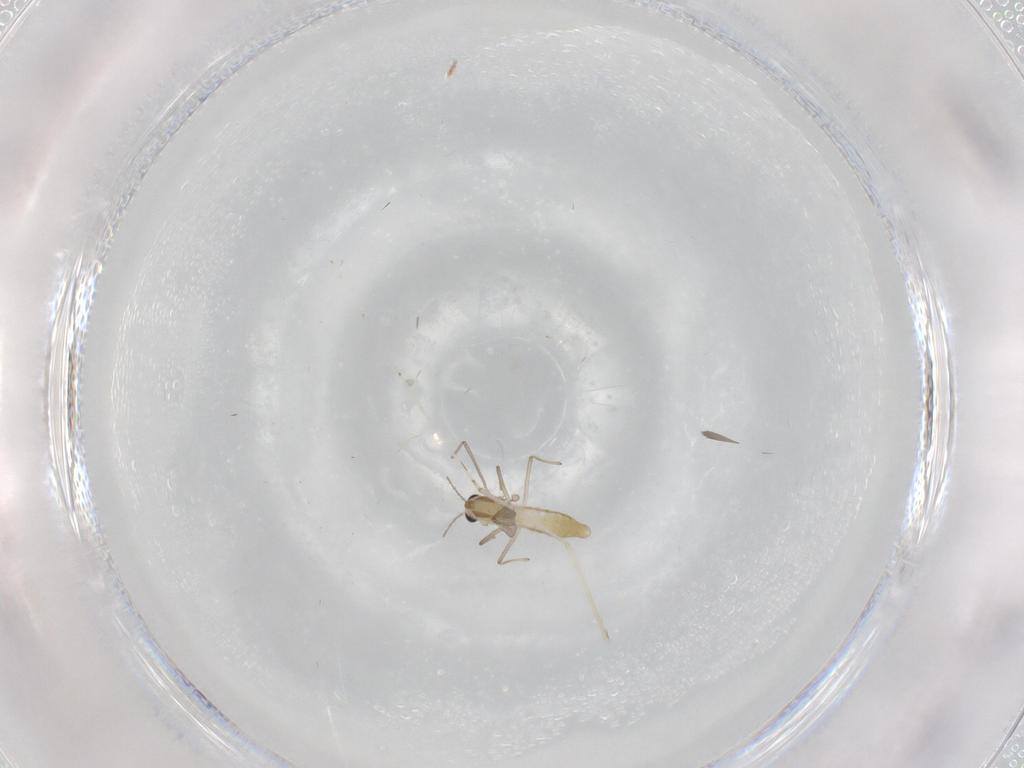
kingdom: Animalia
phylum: Arthropoda
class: Insecta
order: Diptera
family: Cecidomyiidae
